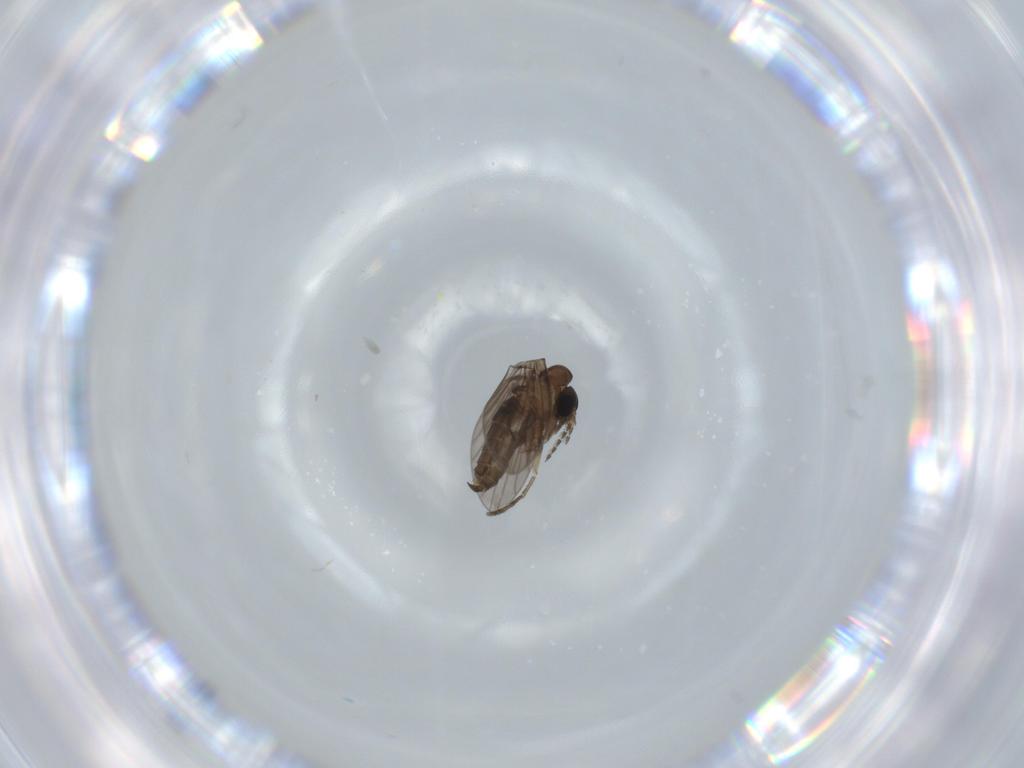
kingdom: Animalia
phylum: Arthropoda
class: Insecta
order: Diptera
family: Psychodidae
